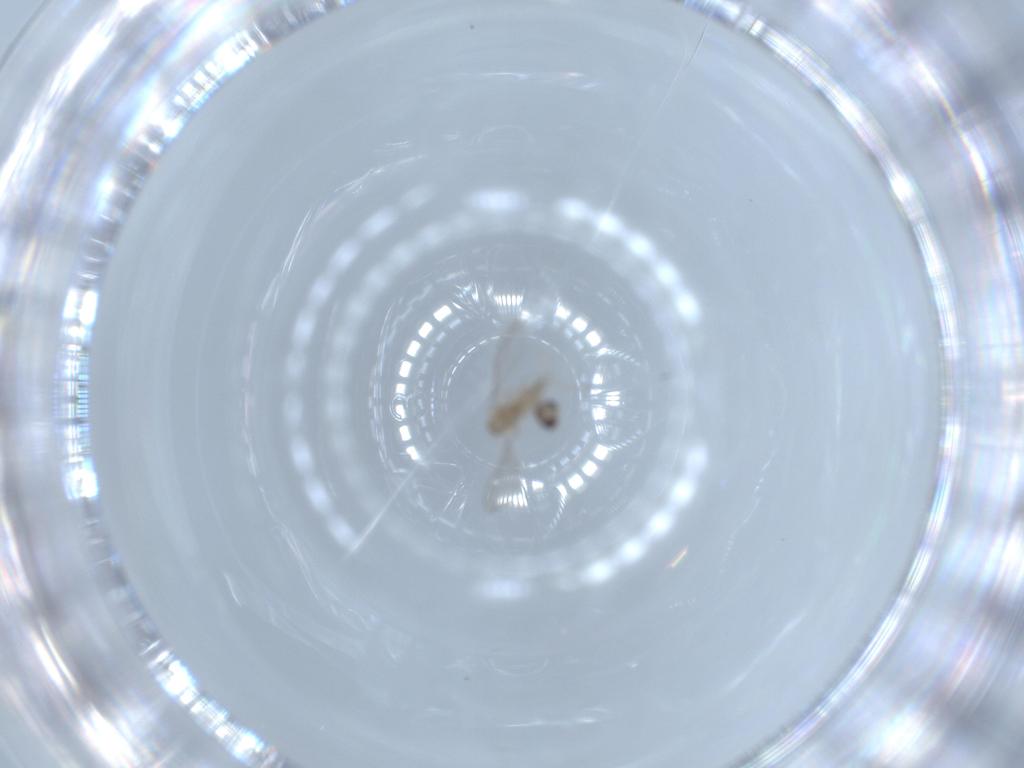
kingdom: Animalia
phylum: Arthropoda
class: Insecta
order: Diptera
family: Cecidomyiidae
